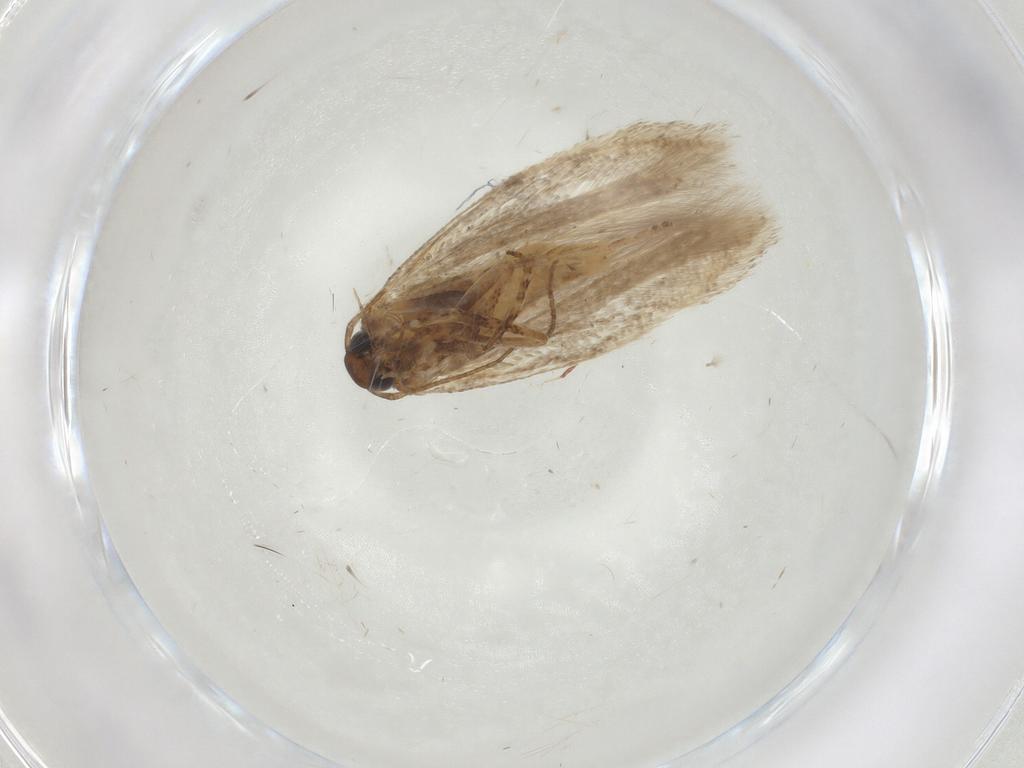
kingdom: Animalia
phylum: Arthropoda
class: Insecta
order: Lepidoptera
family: Gelechiidae
